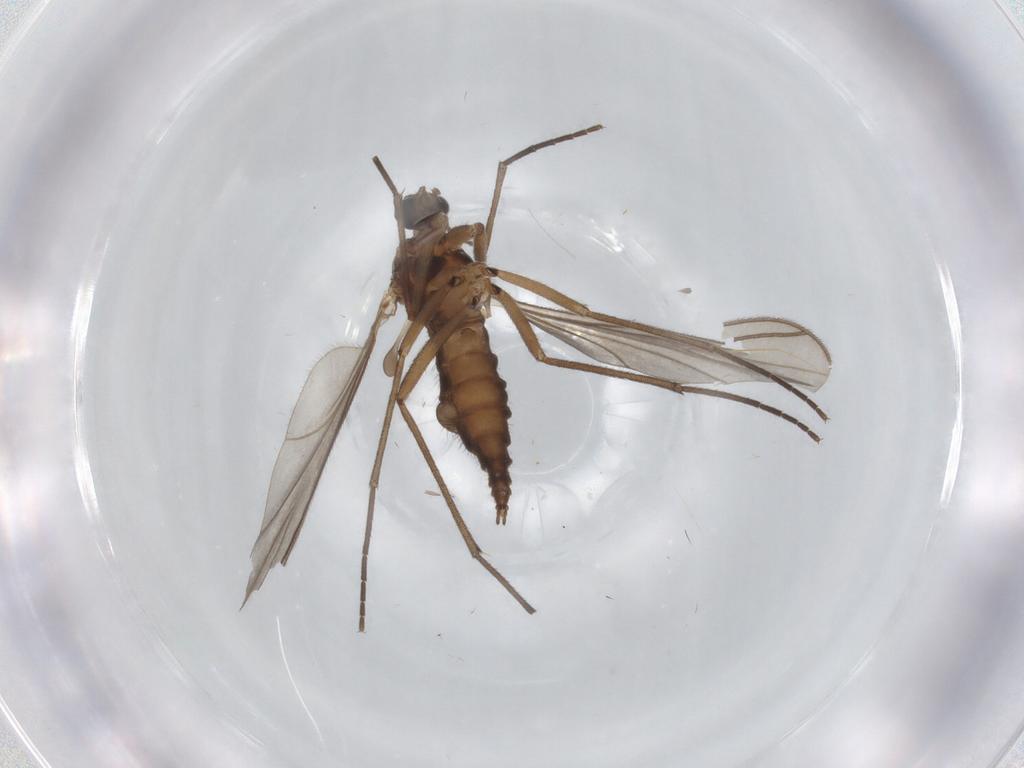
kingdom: Animalia
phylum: Arthropoda
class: Insecta
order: Diptera
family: Sciaridae
